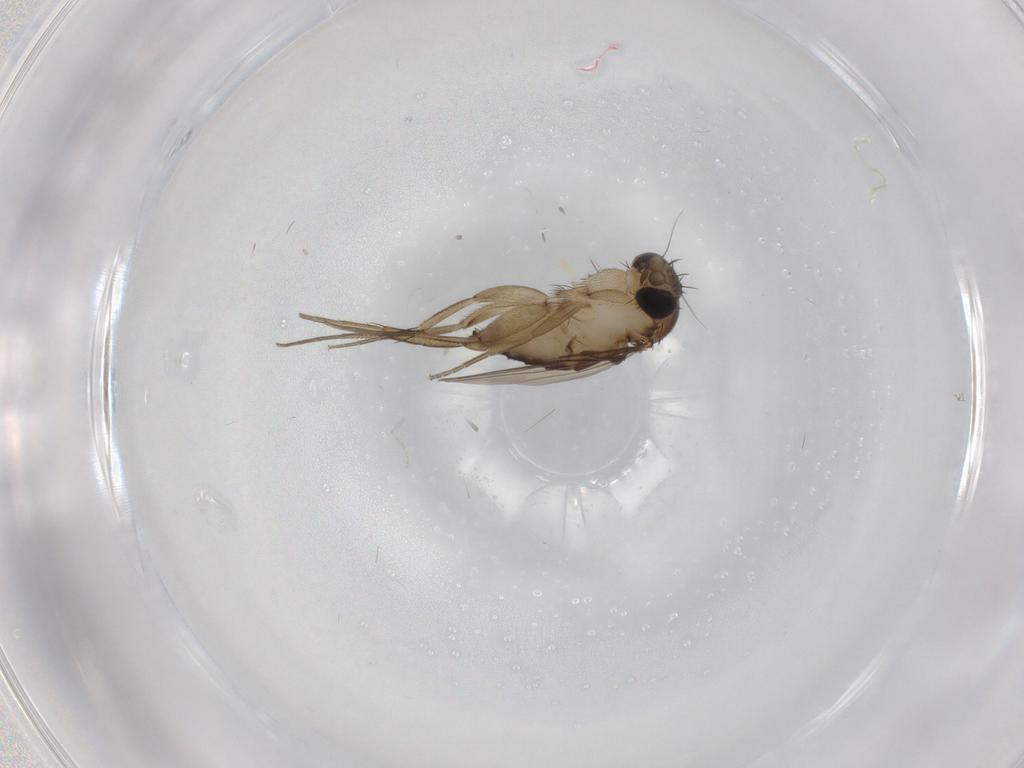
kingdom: Animalia
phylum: Arthropoda
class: Insecta
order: Diptera
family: Phoridae
